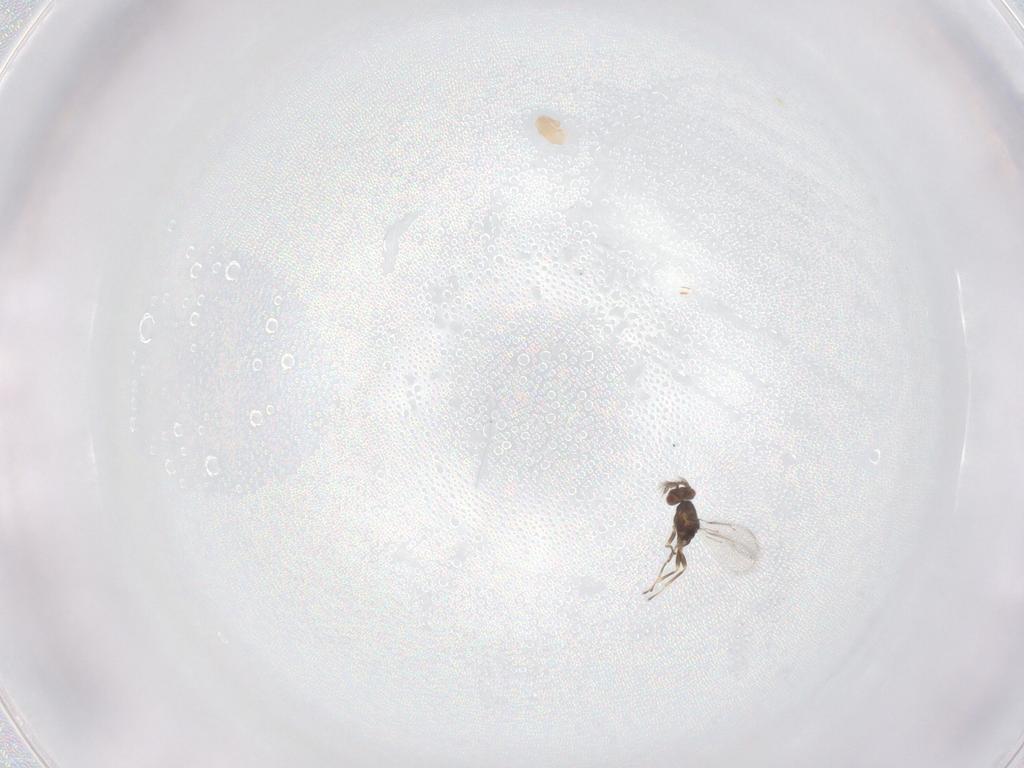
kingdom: Animalia
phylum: Arthropoda
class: Insecta
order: Hymenoptera
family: Eulophidae
